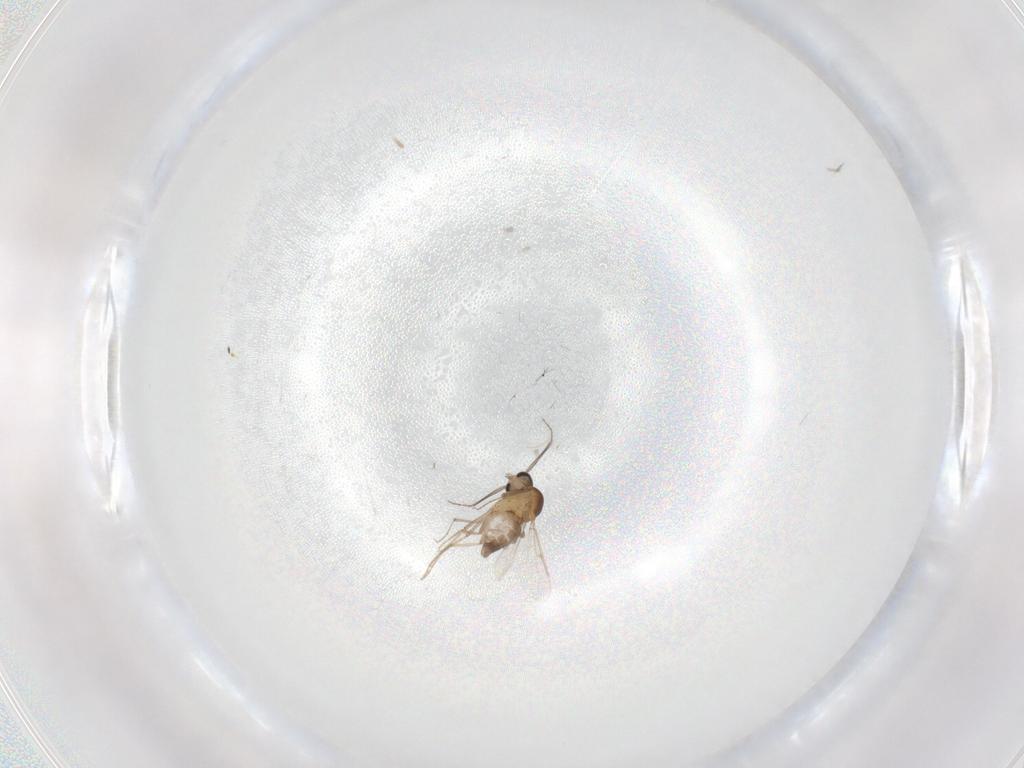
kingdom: Animalia
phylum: Arthropoda
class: Insecta
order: Diptera
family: Ceratopogonidae
